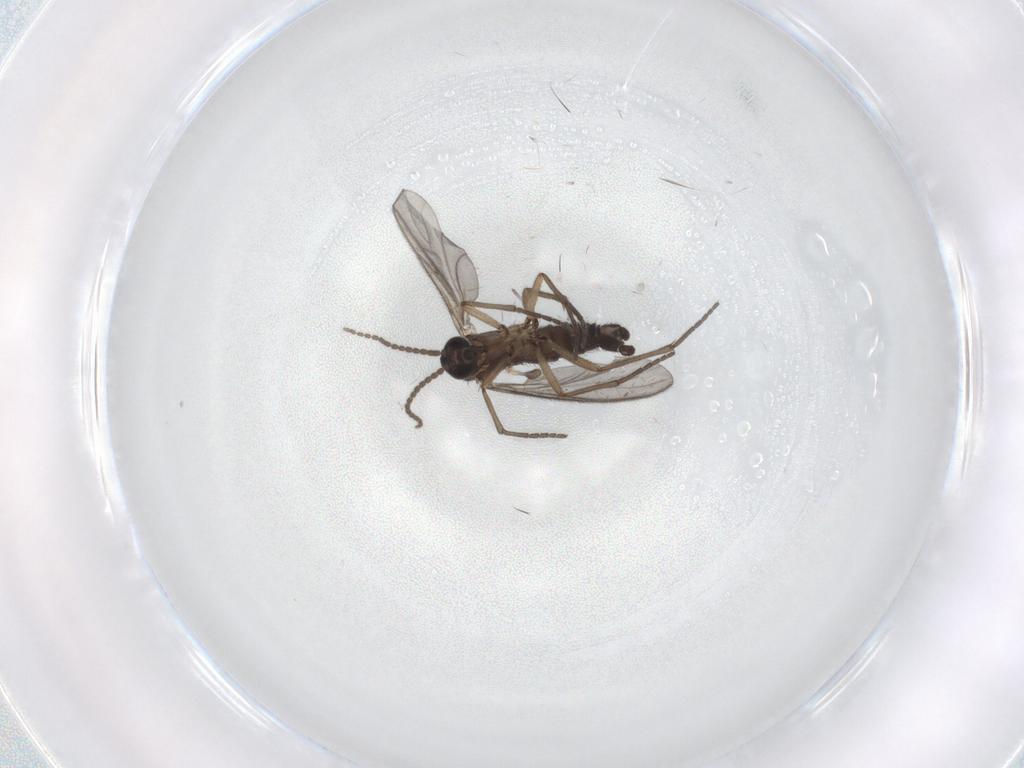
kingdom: Animalia
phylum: Arthropoda
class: Insecta
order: Diptera
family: Sciaridae
